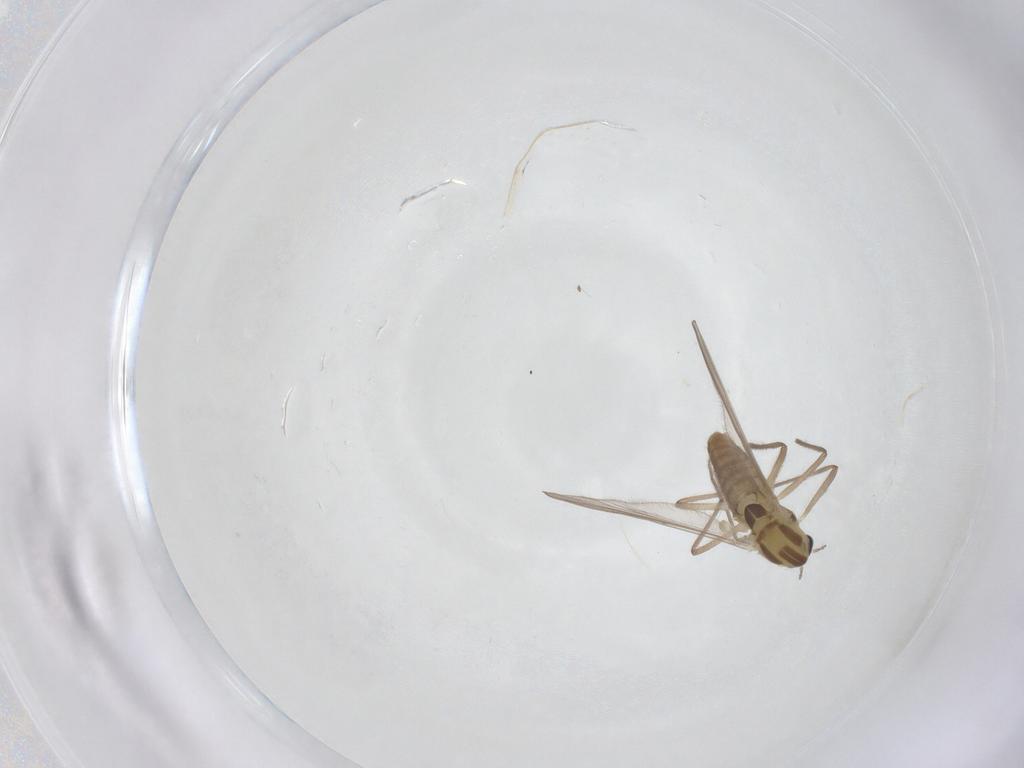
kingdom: Animalia
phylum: Arthropoda
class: Insecta
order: Diptera
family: Chironomidae
